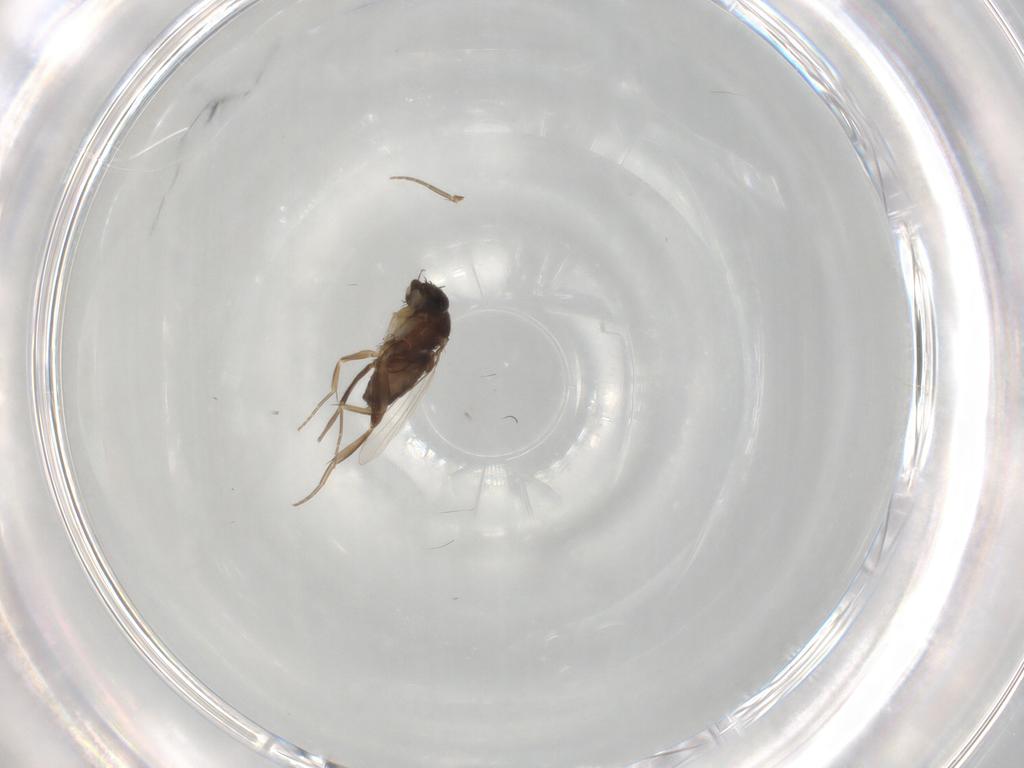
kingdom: Animalia
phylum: Arthropoda
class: Insecta
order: Diptera
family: Phoridae
